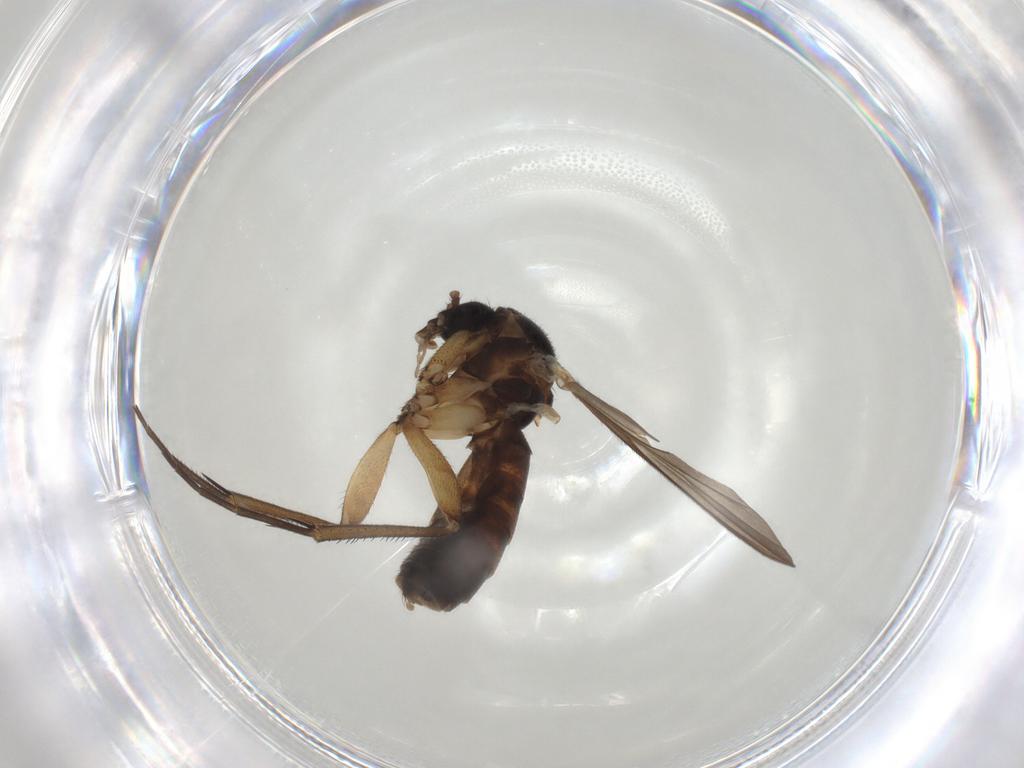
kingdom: Animalia
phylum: Arthropoda
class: Insecta
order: Diptera
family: Mycetophilidae
